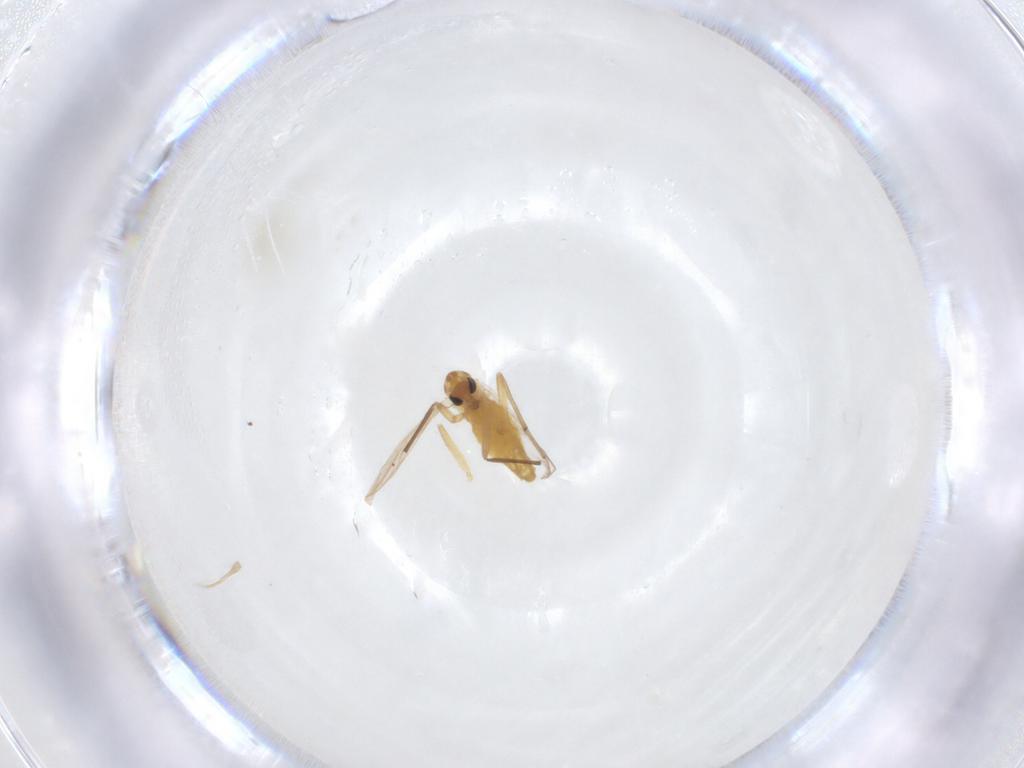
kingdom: Animalia
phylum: Arthropoda
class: Insecta
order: Diptera
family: Chironomidae
